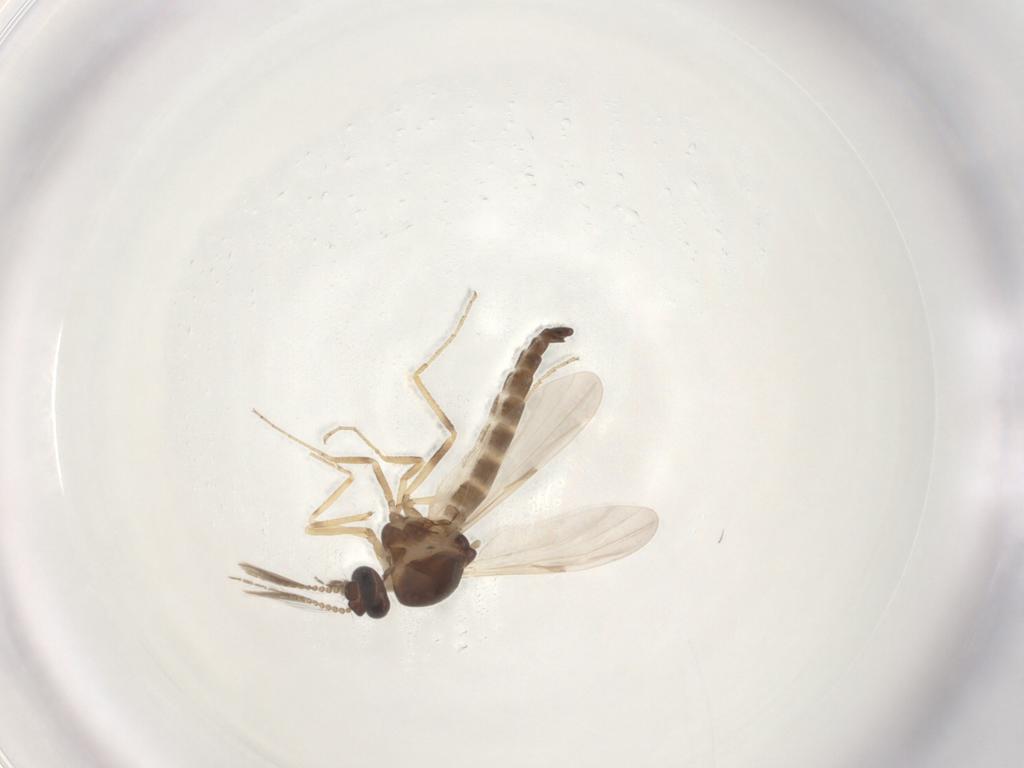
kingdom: Animalia
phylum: Arthropoda
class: Insecta
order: Diptera
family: Ceratopogonidae
